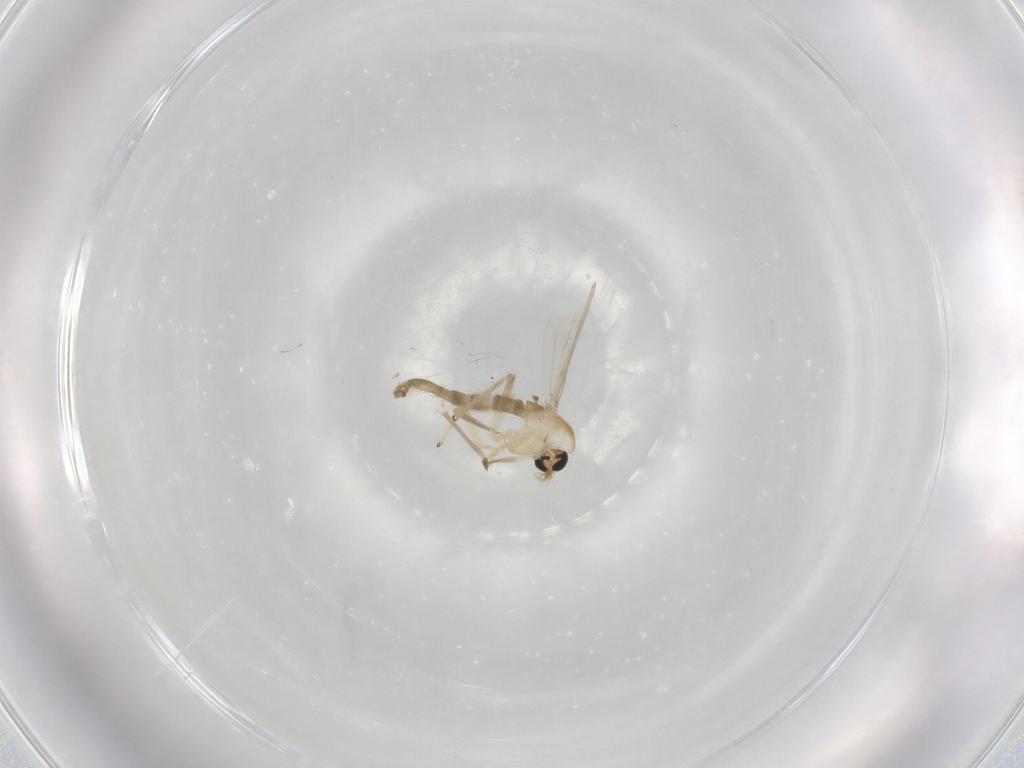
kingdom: Animalia
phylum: Arthropoda
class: Insecta
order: Diptera
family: Chironomidae
